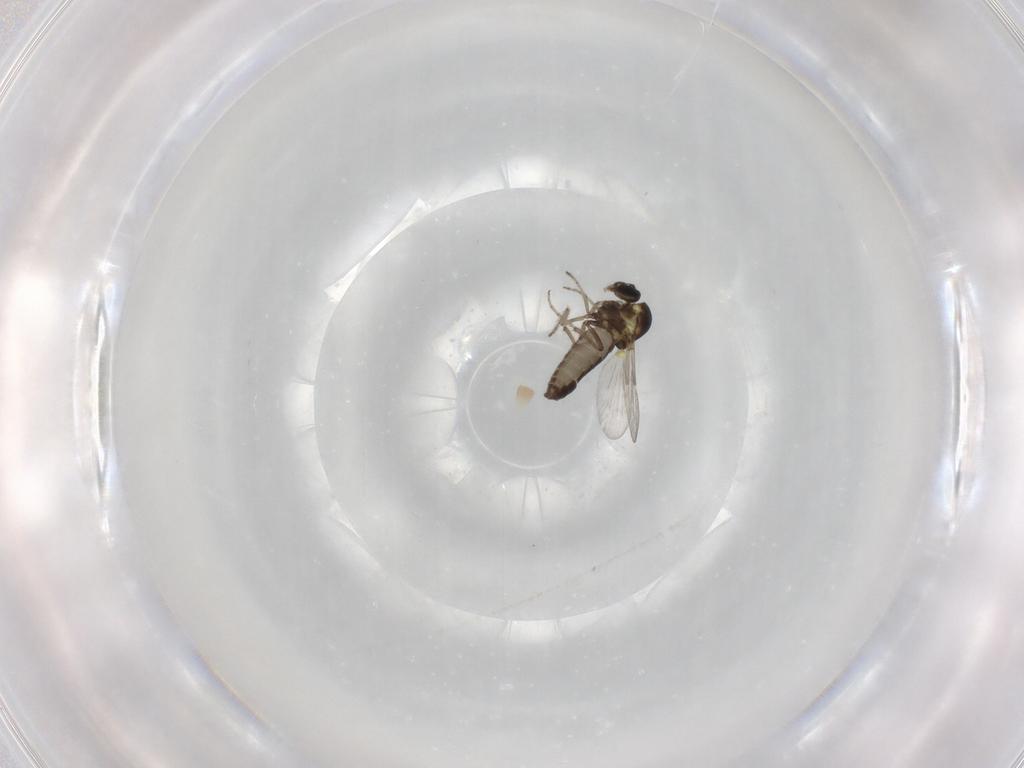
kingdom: Animalia
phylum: Arthropoda
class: Insecta
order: Diptera
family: Ceratopogonidae
